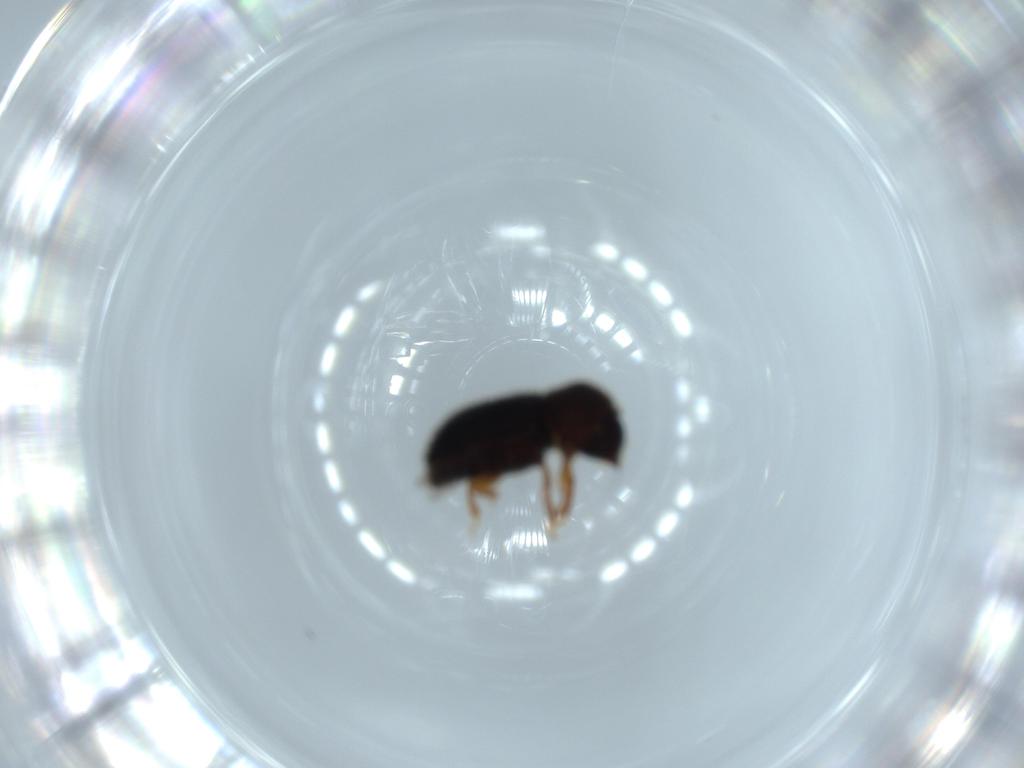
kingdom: Animalia
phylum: Arthropoda
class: Insecta
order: Coleoptera
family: Curculionidae
